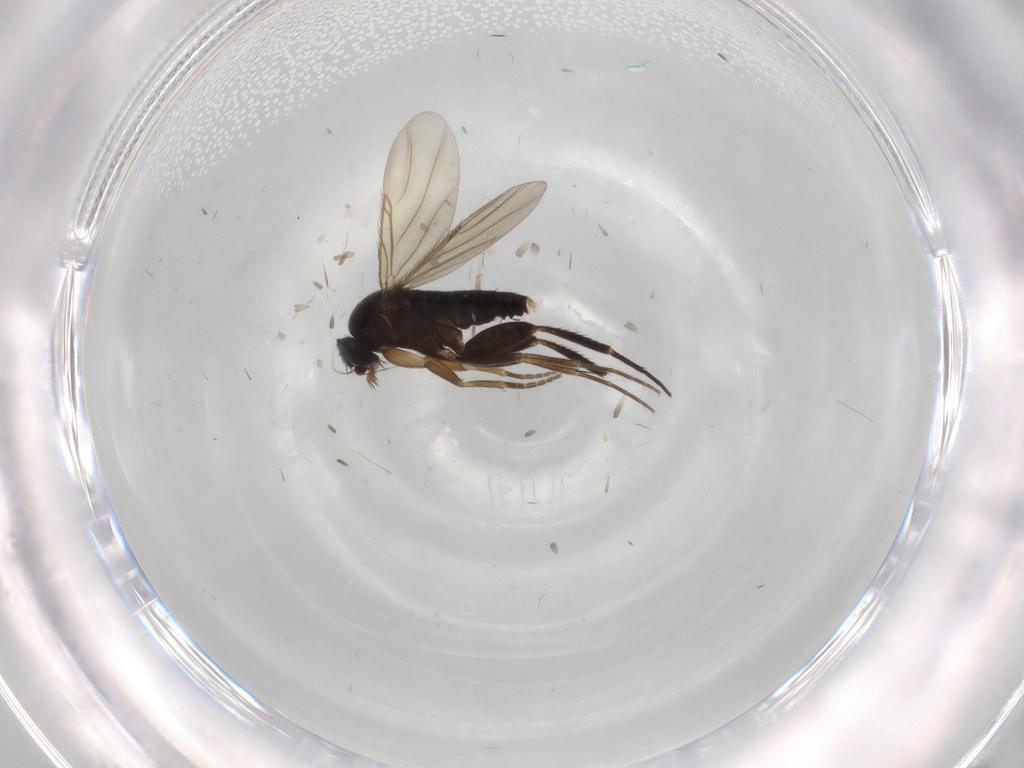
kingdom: Animalia
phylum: Arthropoda
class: Insecta
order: Diptera
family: Phoridae
